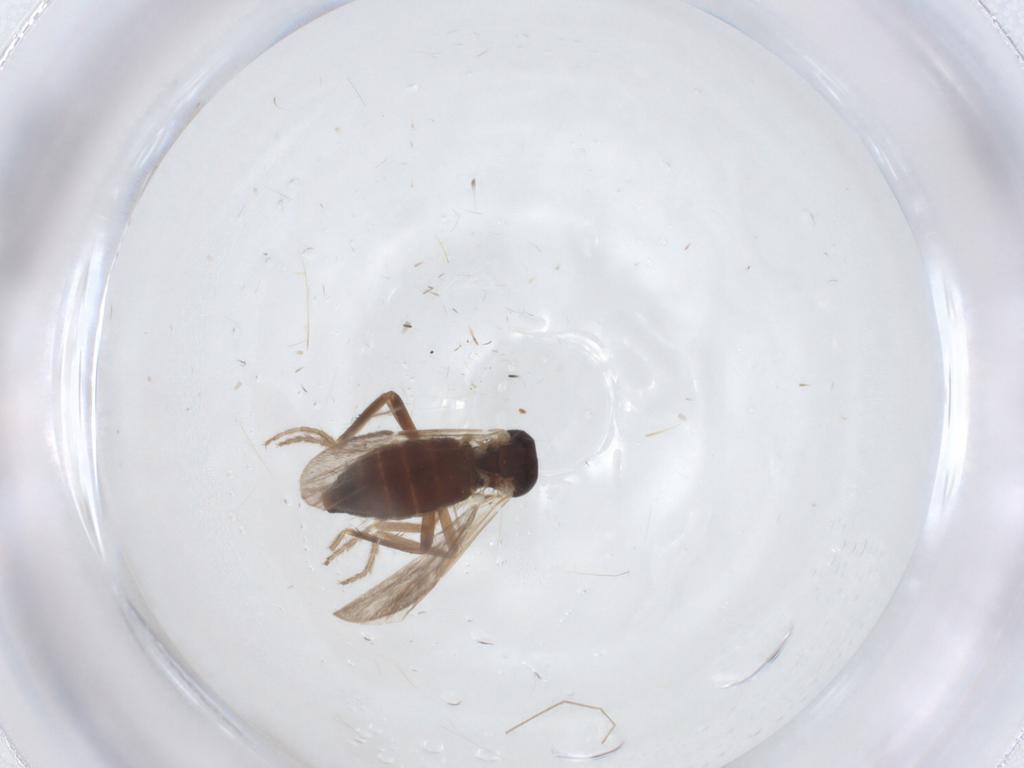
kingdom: Animalia
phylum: Arthropoda
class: Insecta
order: Diptera
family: Ceratopogonidae
